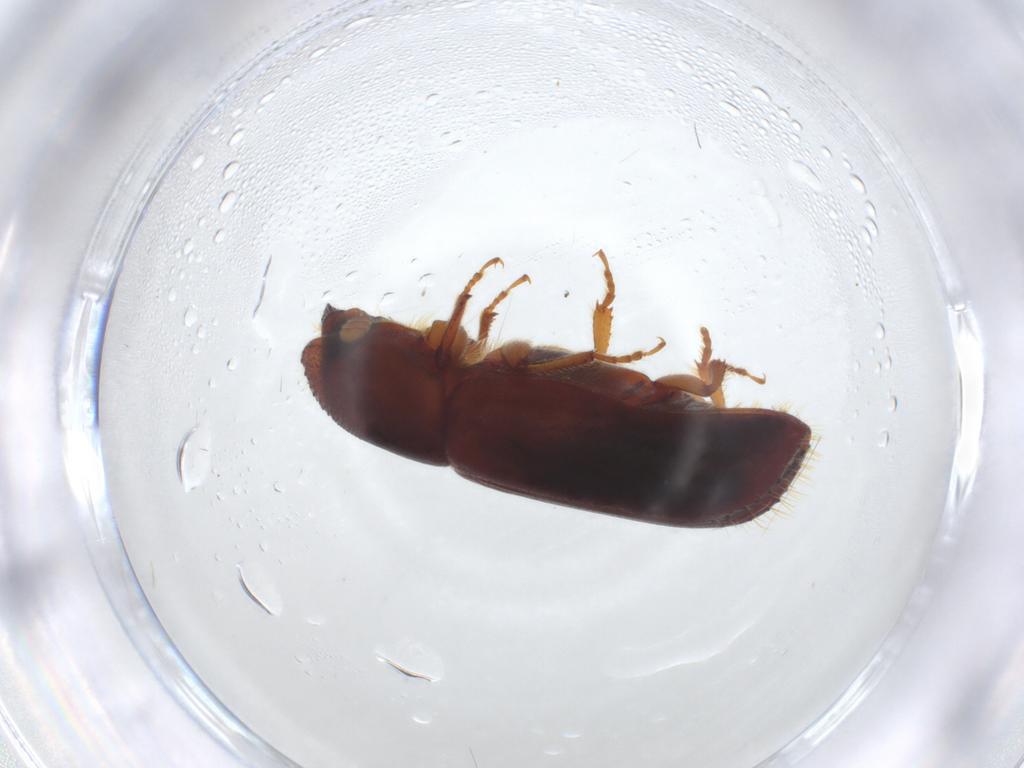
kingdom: Animalia
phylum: Arthropoda
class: Insecta
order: Coleoptera
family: Curculionidae
